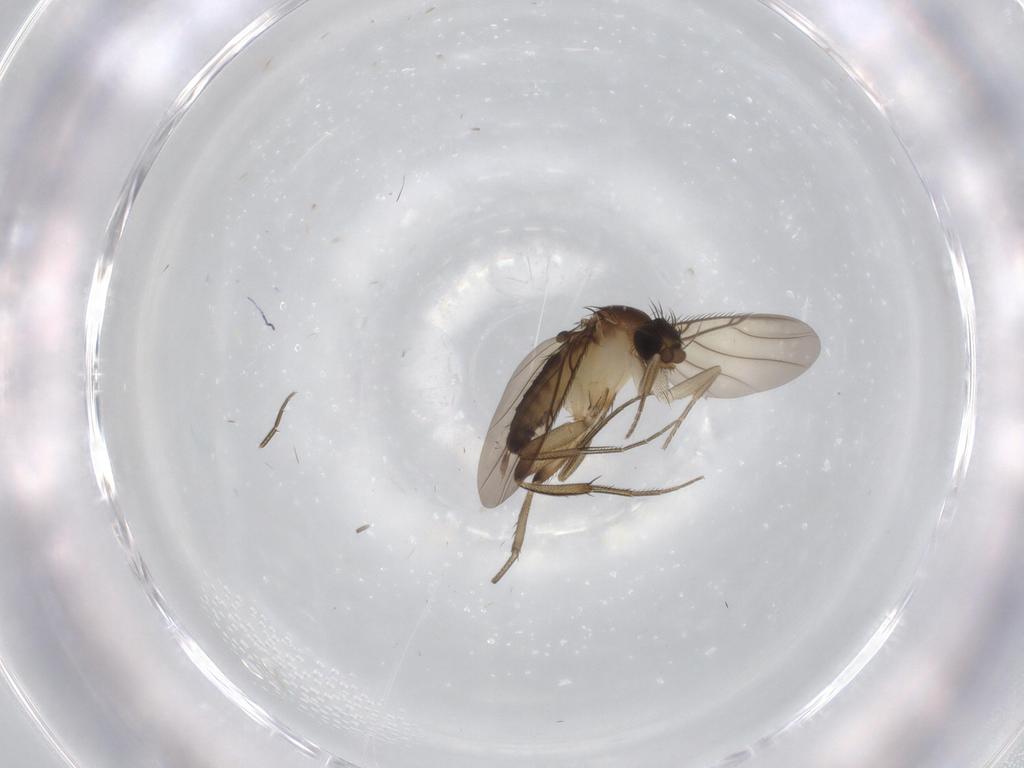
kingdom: Animalia
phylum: Arthropoda
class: Insecta
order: Diptera
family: Phoridae
